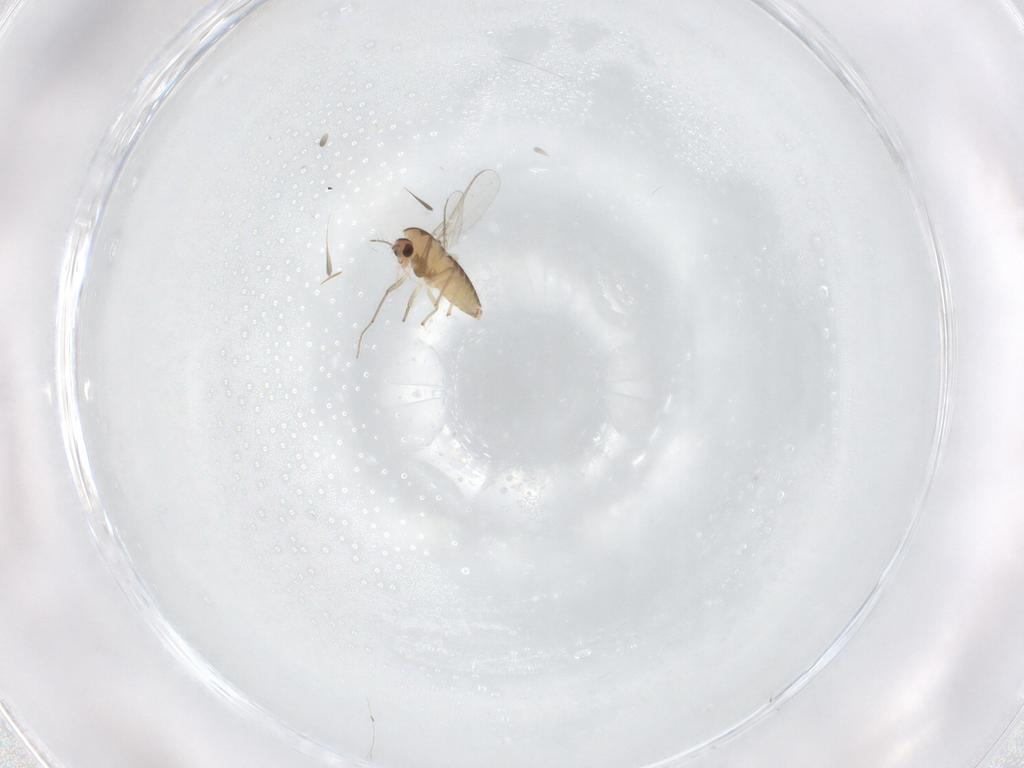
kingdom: Animalia
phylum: Arthropoda
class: Insecta
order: Diptera
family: Chironomidae
